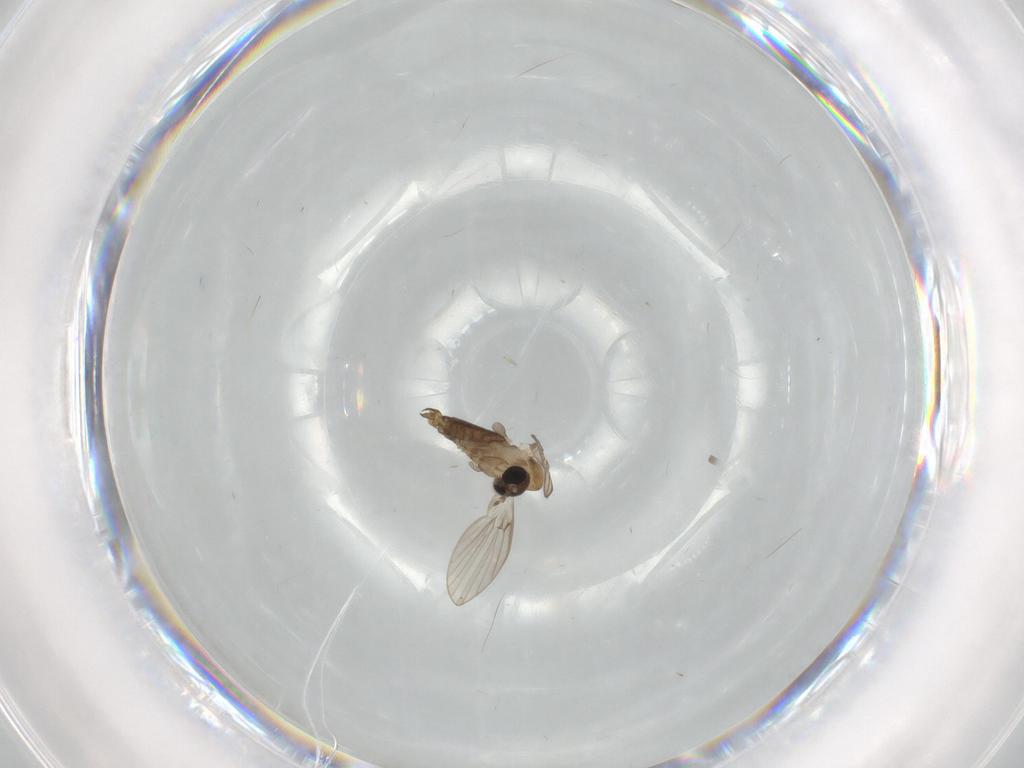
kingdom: Animalia
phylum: Arthropoda
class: Insecta
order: Diptera
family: Psychodidae
